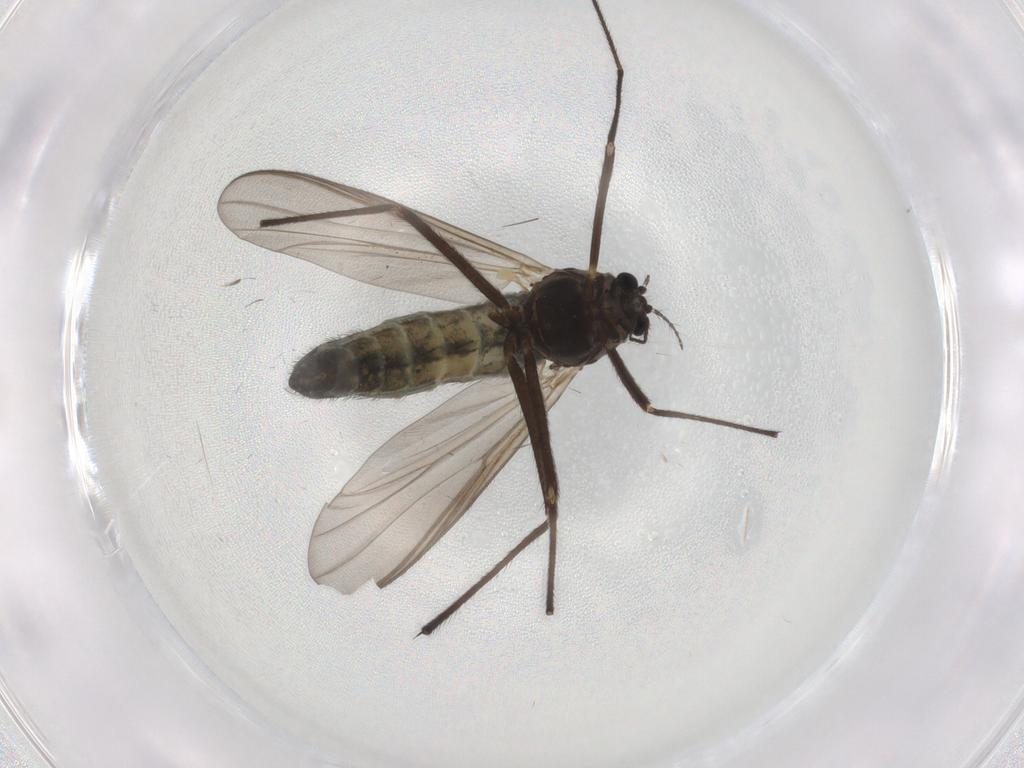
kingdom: Animalia
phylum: Arthropoda
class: Insecta
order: Diptera
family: Chironomidae
